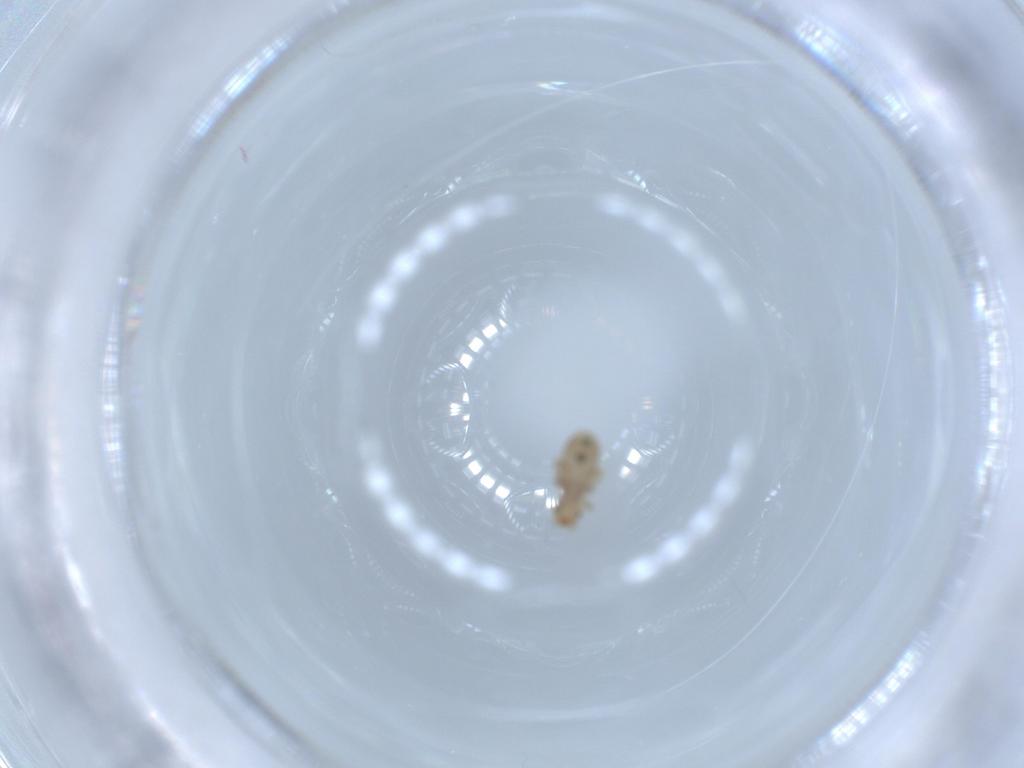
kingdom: Animalia
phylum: Arthropoda
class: Insecta
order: Psocodea
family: Liposcelididae
